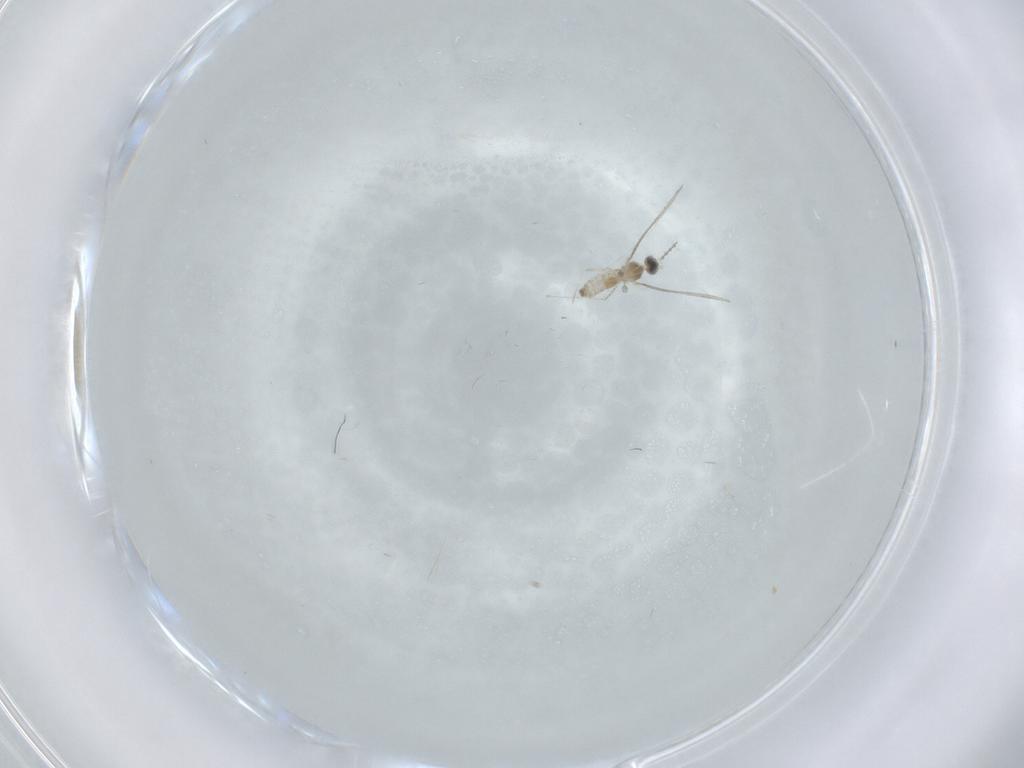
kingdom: Animalia
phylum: Arthropoda
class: Insecta
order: Diptera
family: Cecidomyiidae
